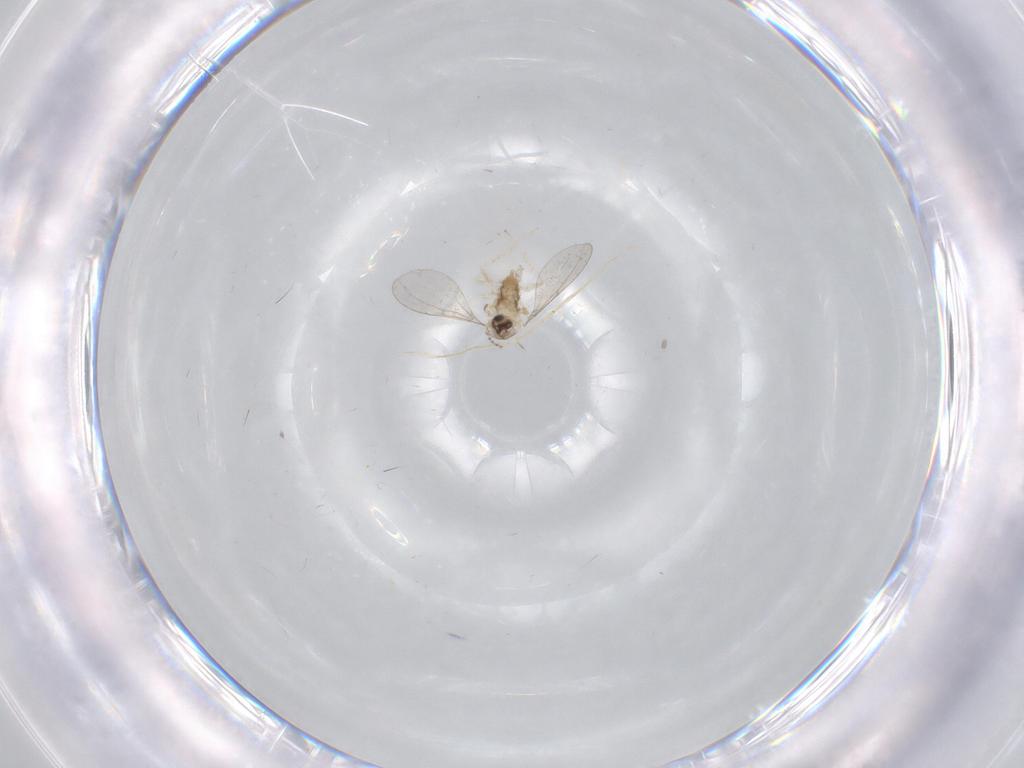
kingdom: Animalia
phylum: Arthropoda
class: Insecta
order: Diptera
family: Cecidomyiidae
